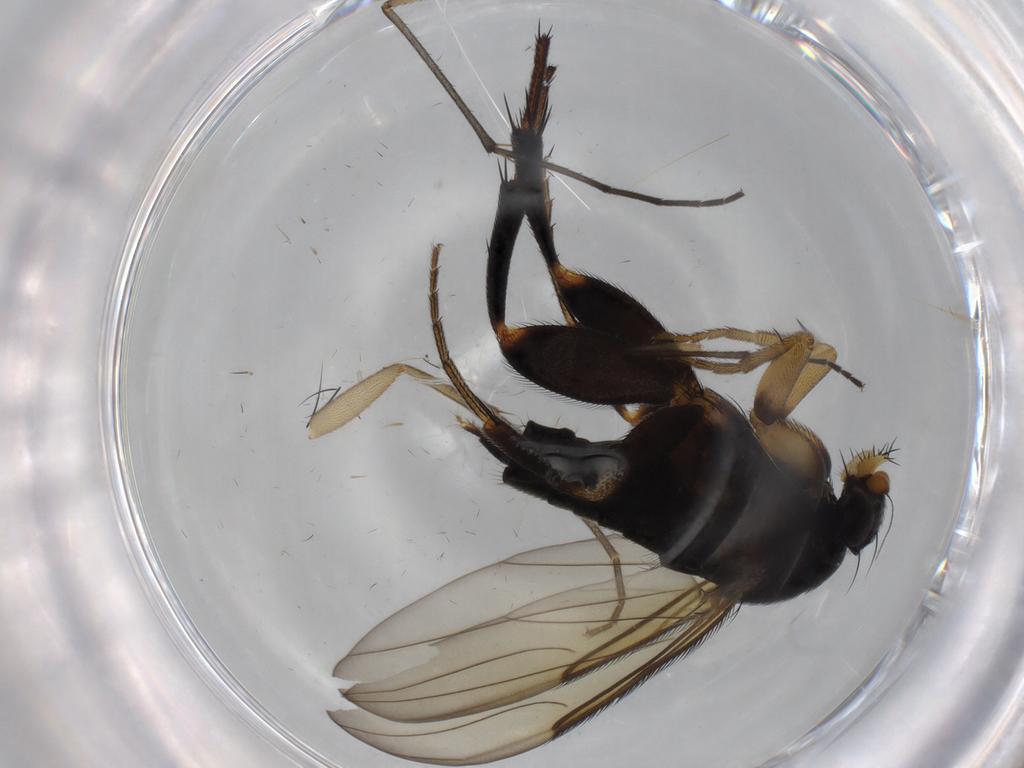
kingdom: Animalia
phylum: Arthropoda
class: Insecta
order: Diptera
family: Phoridae
